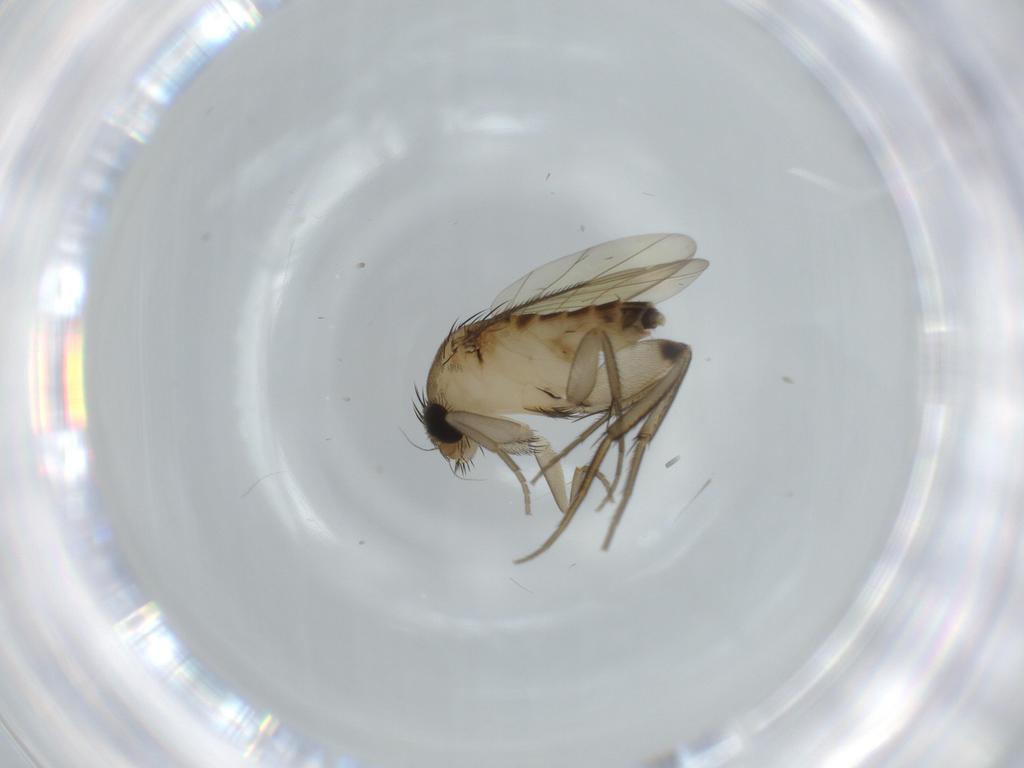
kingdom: Animalia
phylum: Arthropoda
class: Insecta
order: Diptera
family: Phoridae
